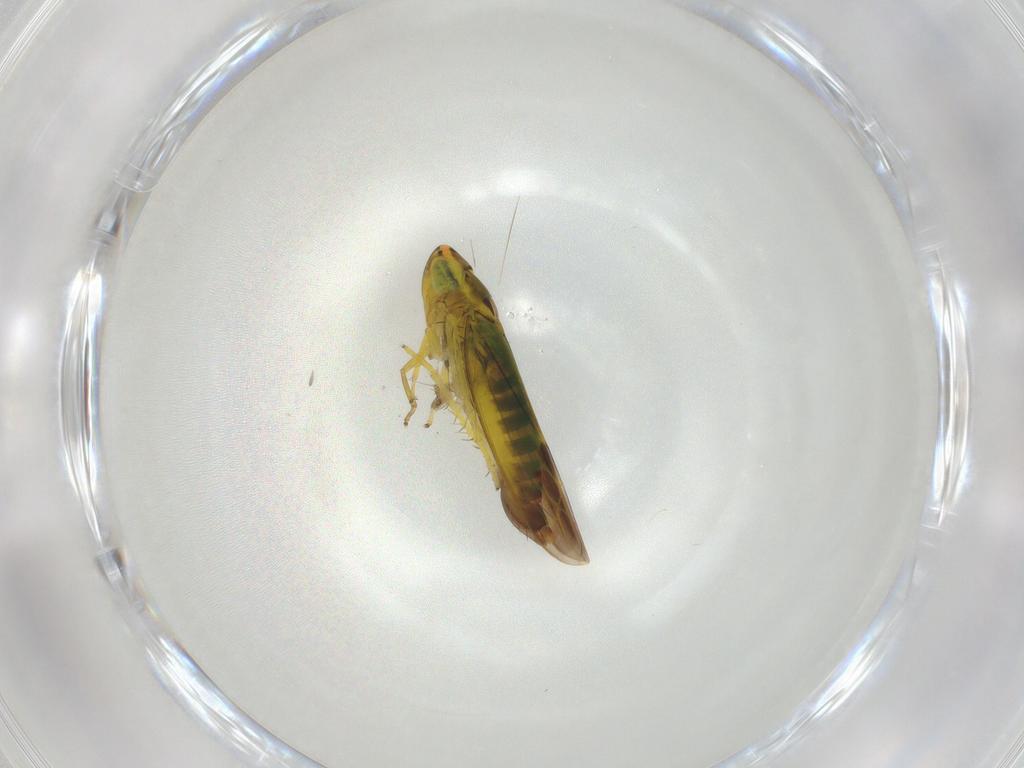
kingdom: Animalia
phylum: Arthropoda
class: Insecta
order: Hemiptera
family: Cicadellidae
